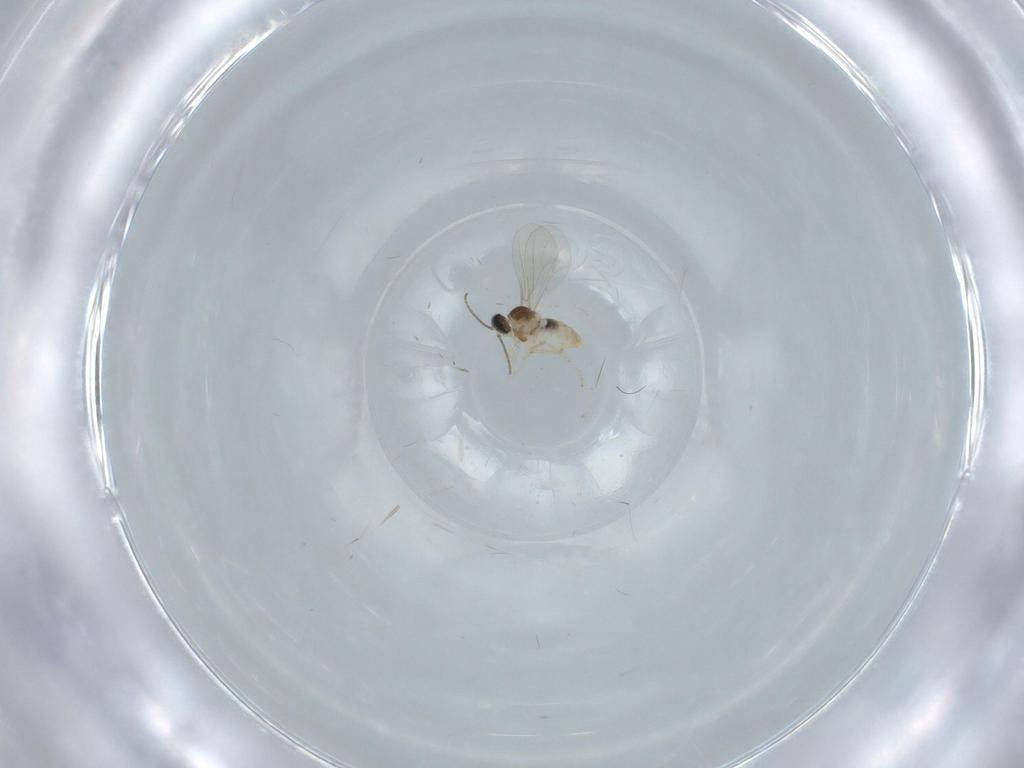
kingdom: Animalia
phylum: Arthropoda
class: Insecta
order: Diptera
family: Cecidomyiidae
